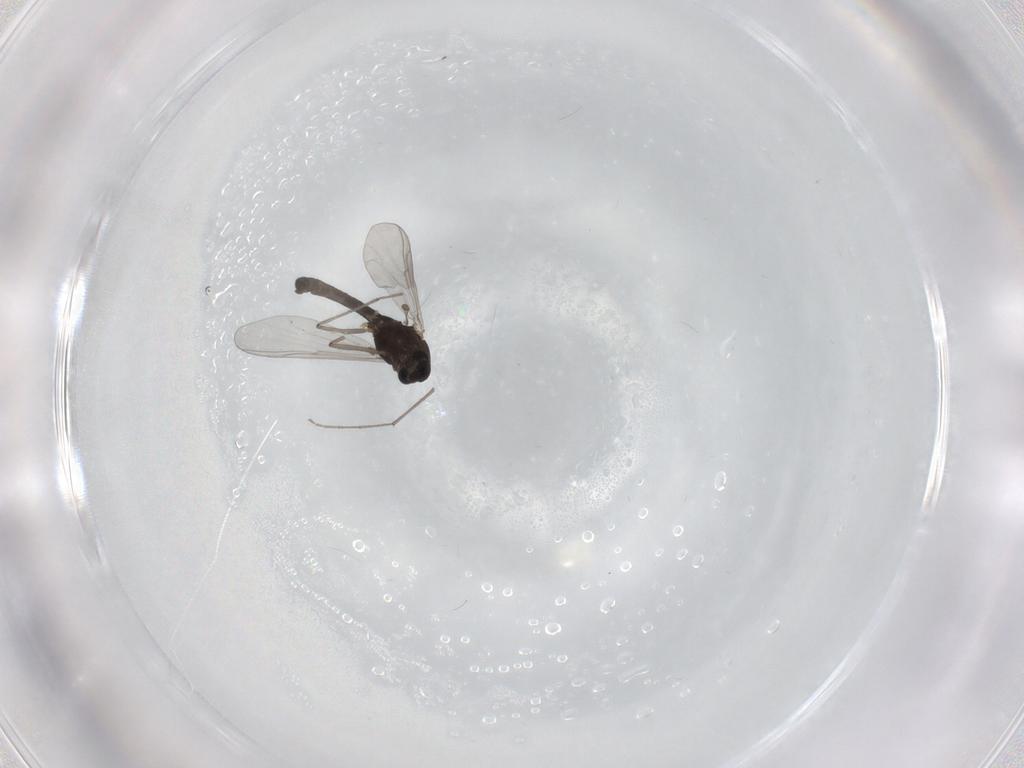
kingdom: Animalia
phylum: Arthropoda
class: Insecta
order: Diptera
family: Chironomidae
